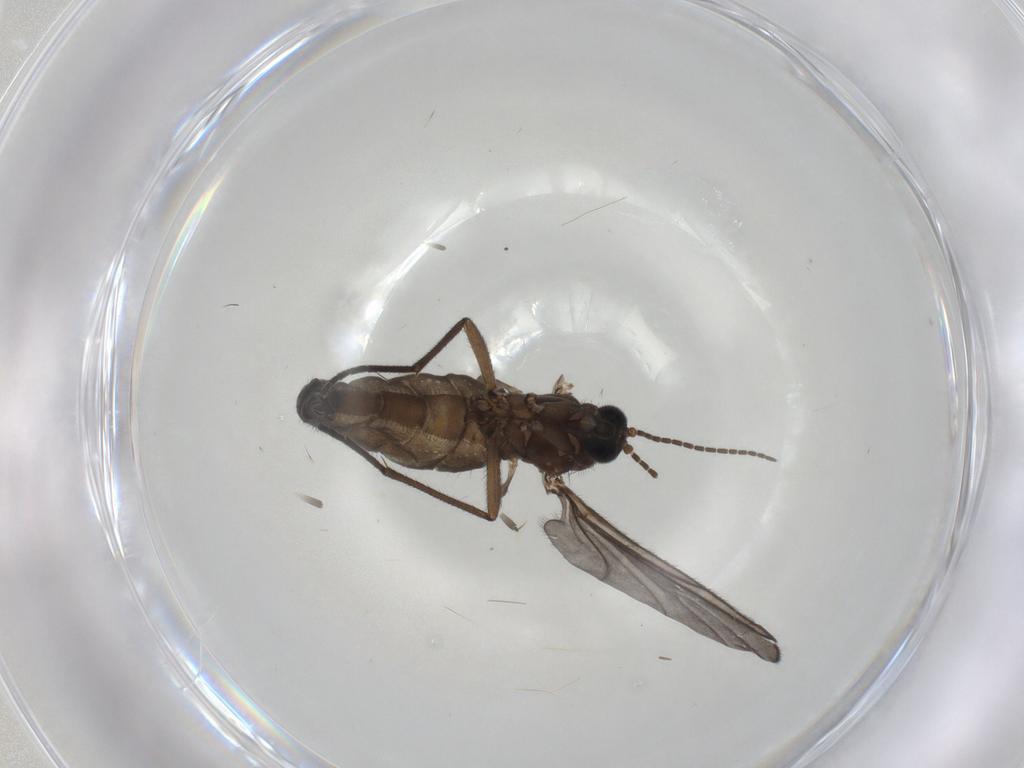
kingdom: Animalia
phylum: Arthropoda
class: Insecta
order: Diptera
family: Sciaridae
